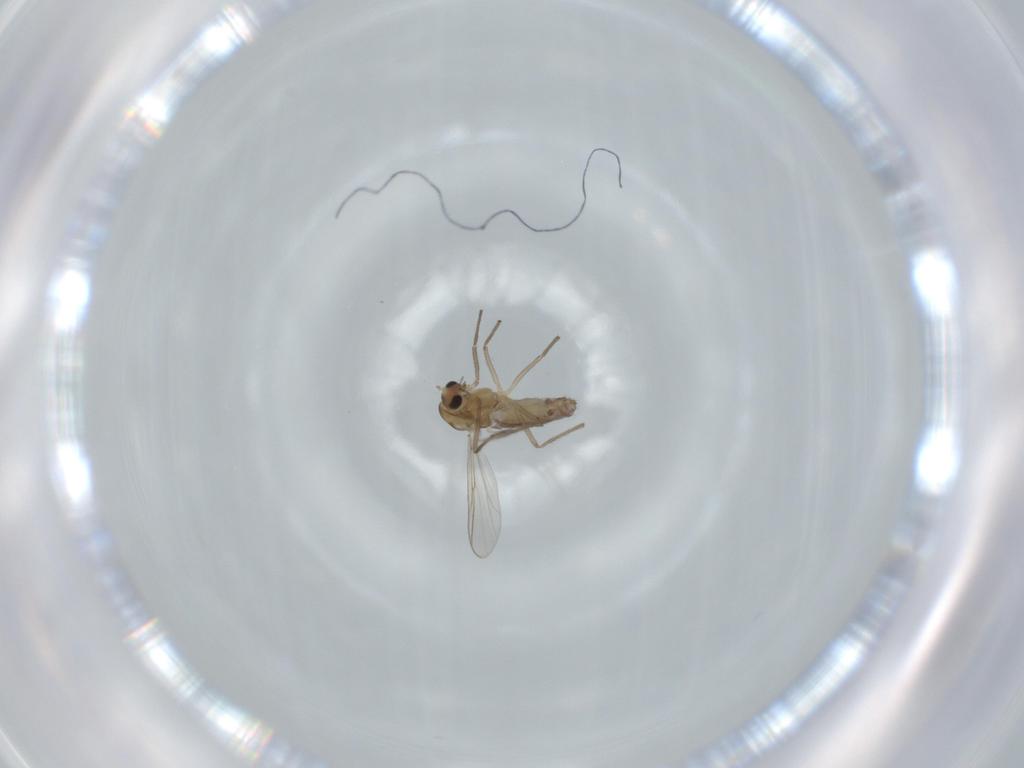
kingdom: Animalia
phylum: Arthropoda
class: Insecta
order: Diptera
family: Chironomidae
